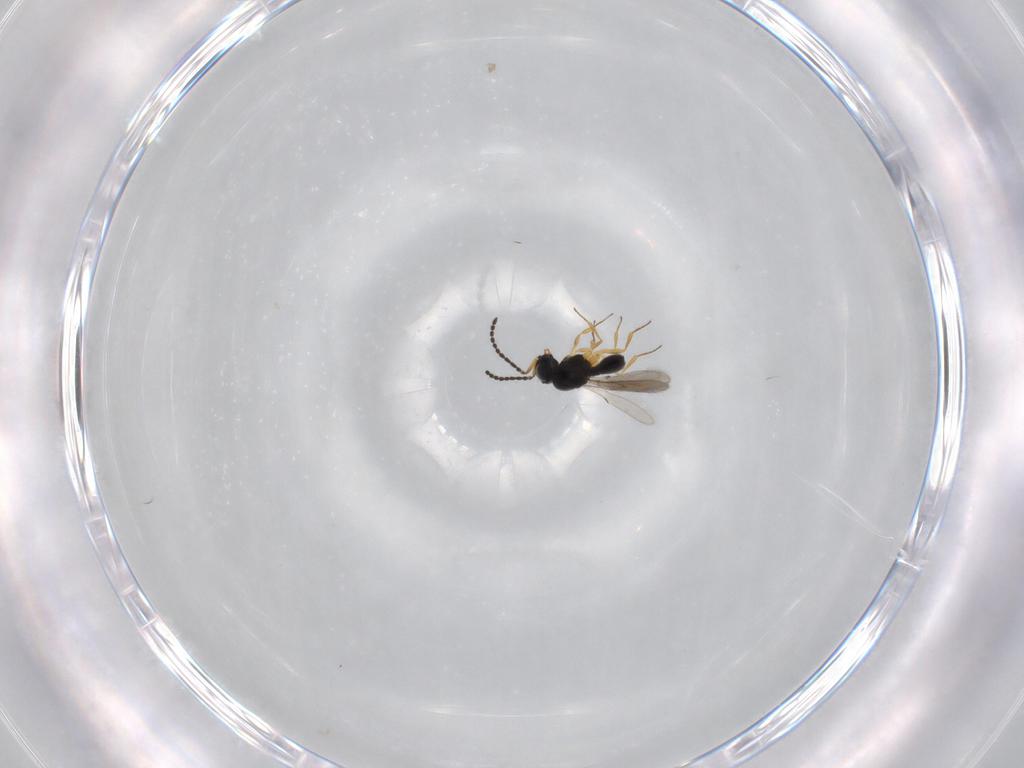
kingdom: Animalia
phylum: Arthropoda
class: Insecta
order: Hymenoptera
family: Scelionidae
